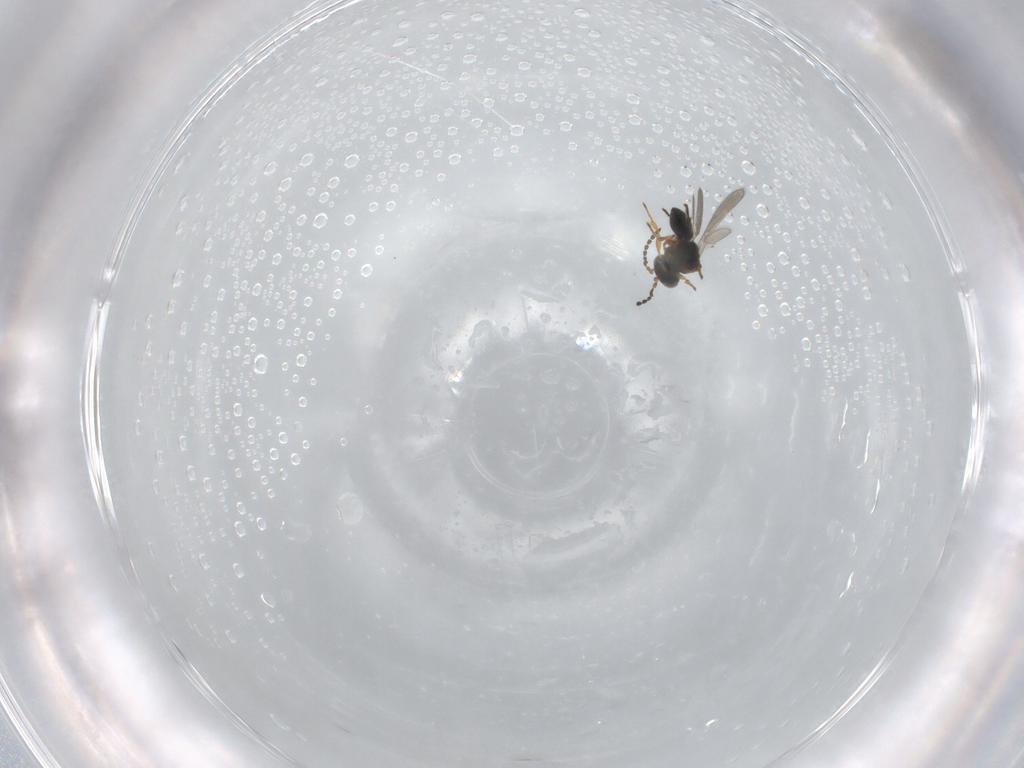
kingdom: Animalia
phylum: Arthropoda
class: Insecta
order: Hymenoptera
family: Platygastridae
